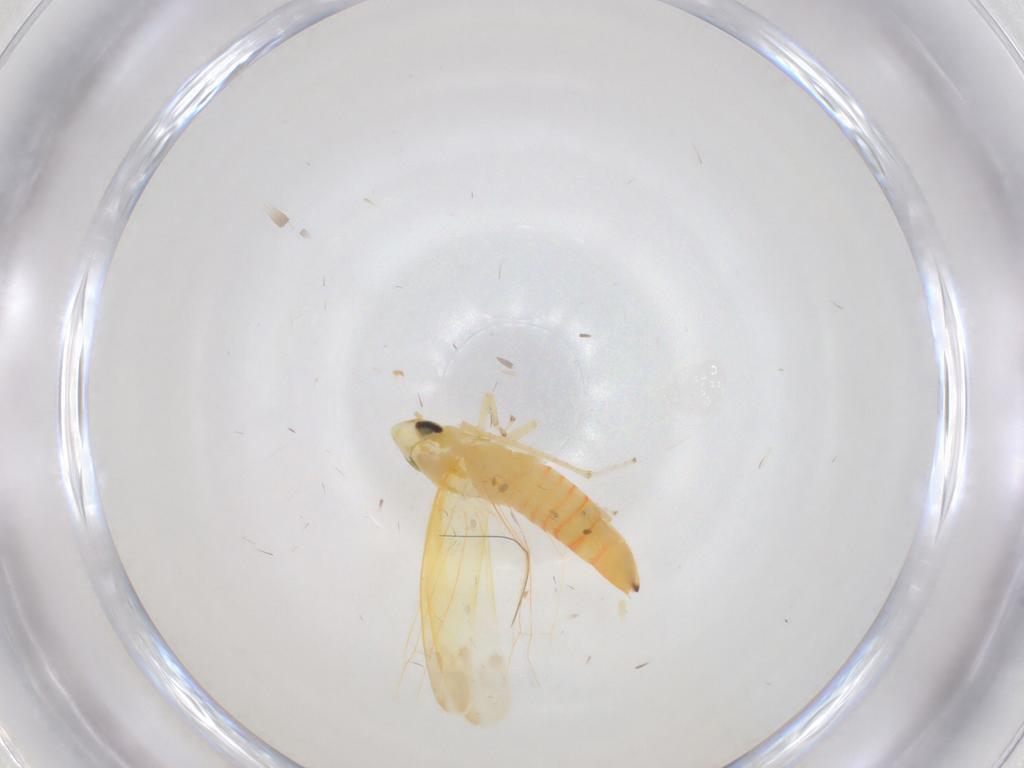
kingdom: Animalia
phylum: Arthropoda
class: Insecta
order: Hemiptera
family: Cicadellidae
